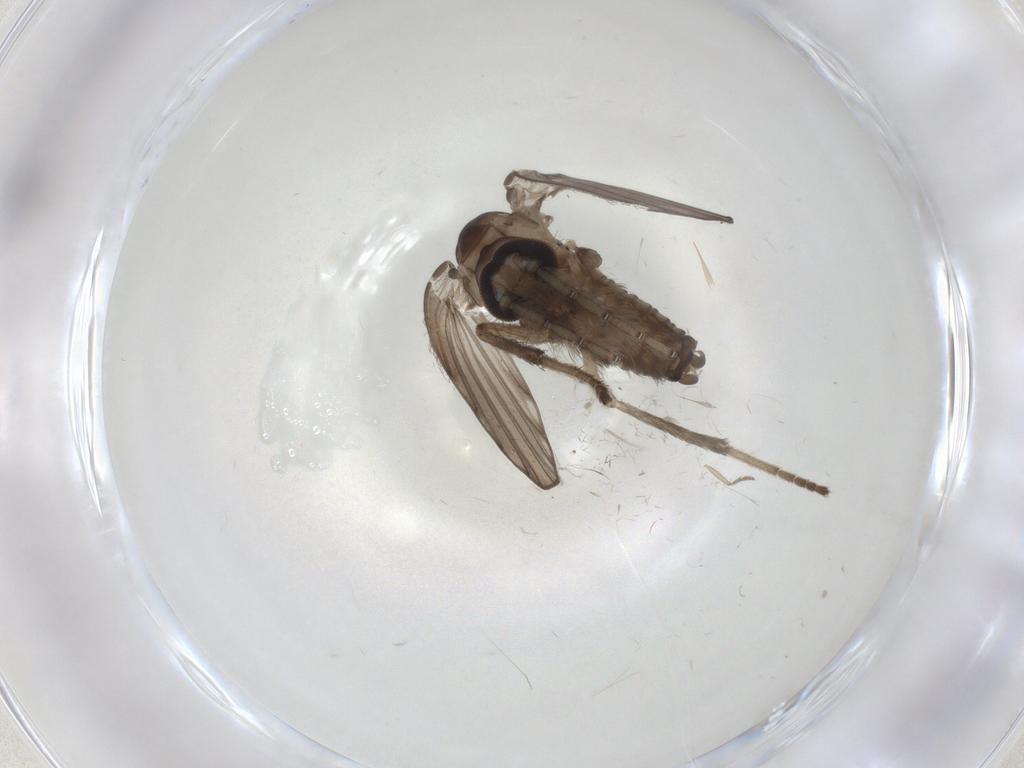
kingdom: Animalia
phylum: Arthropoda
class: Insecta
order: Diptera
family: Psychodidae
